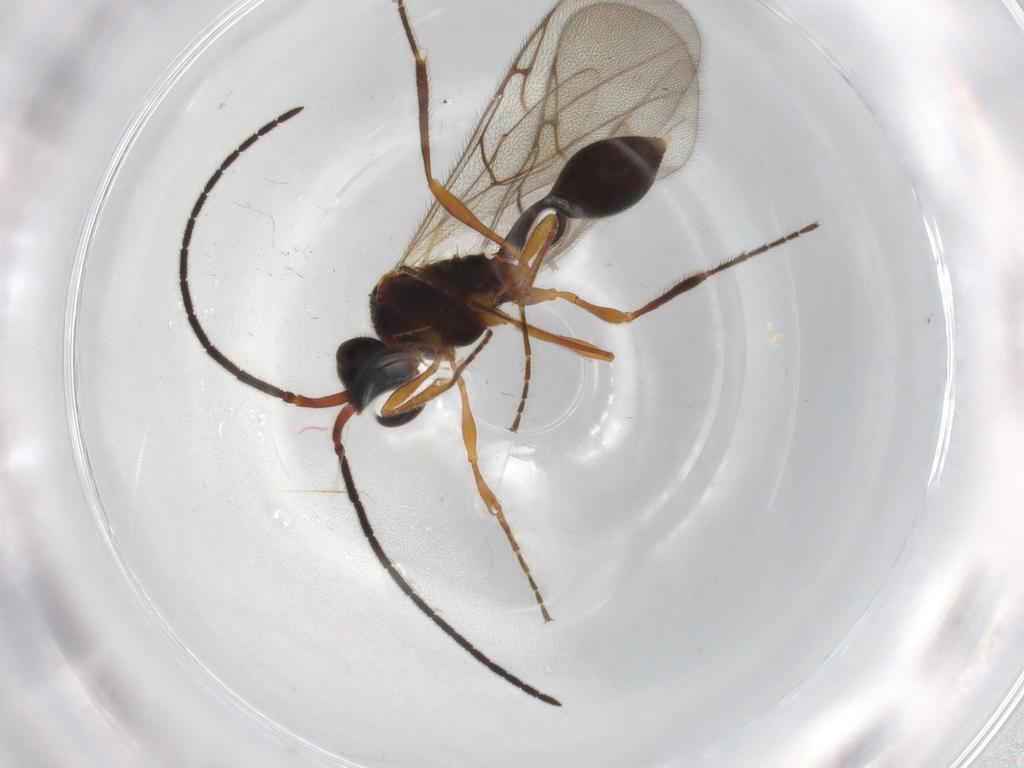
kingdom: Animalia
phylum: Arthropoda
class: Insecta
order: Hymenoptera
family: Diapriidae
